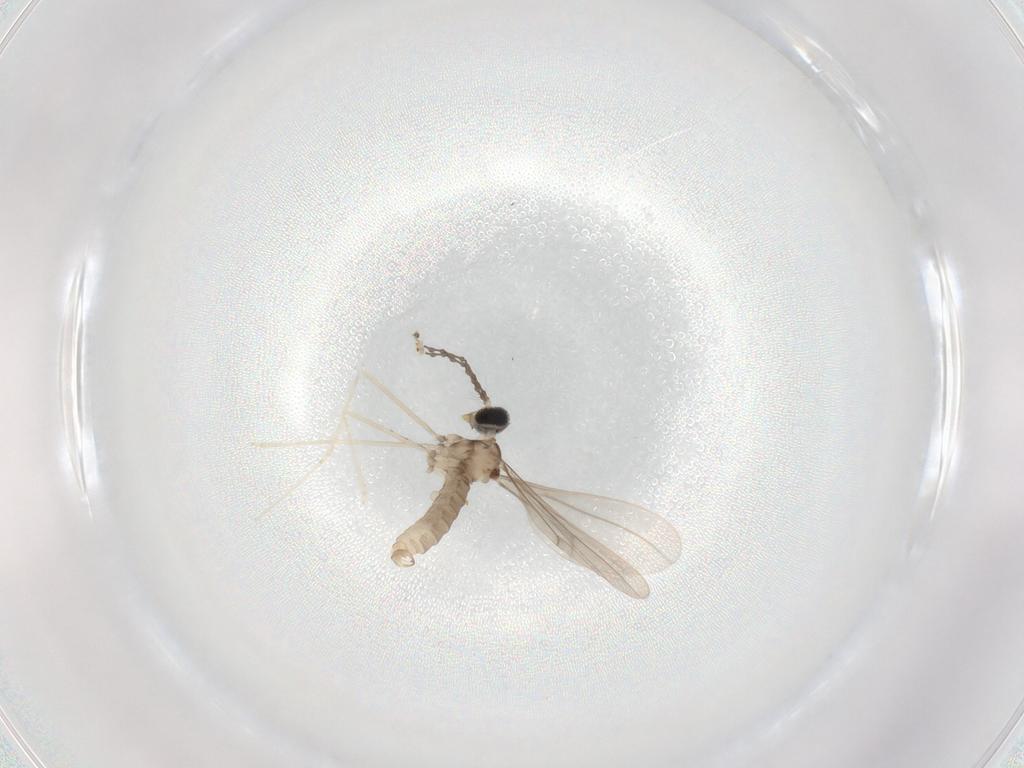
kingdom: Animalia
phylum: Arthropoda
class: Insecta
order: Diptera
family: Cecidomyiidae
